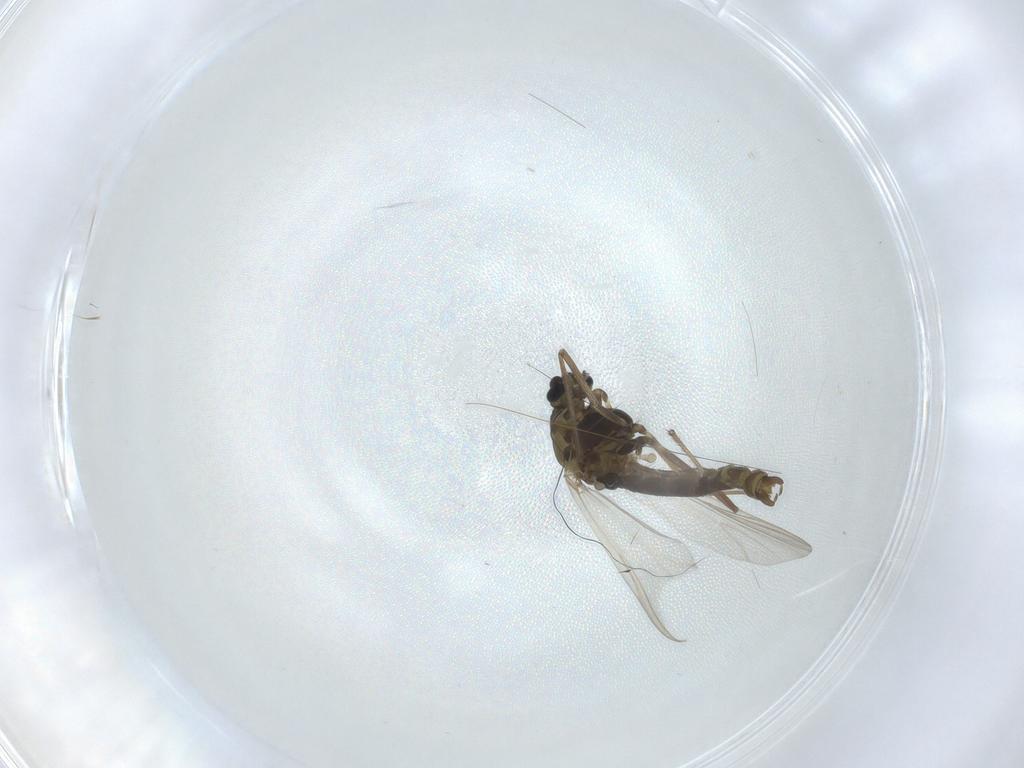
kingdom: Animalia
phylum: Arthropoda
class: Insecta
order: Diptera
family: Chironomidae
